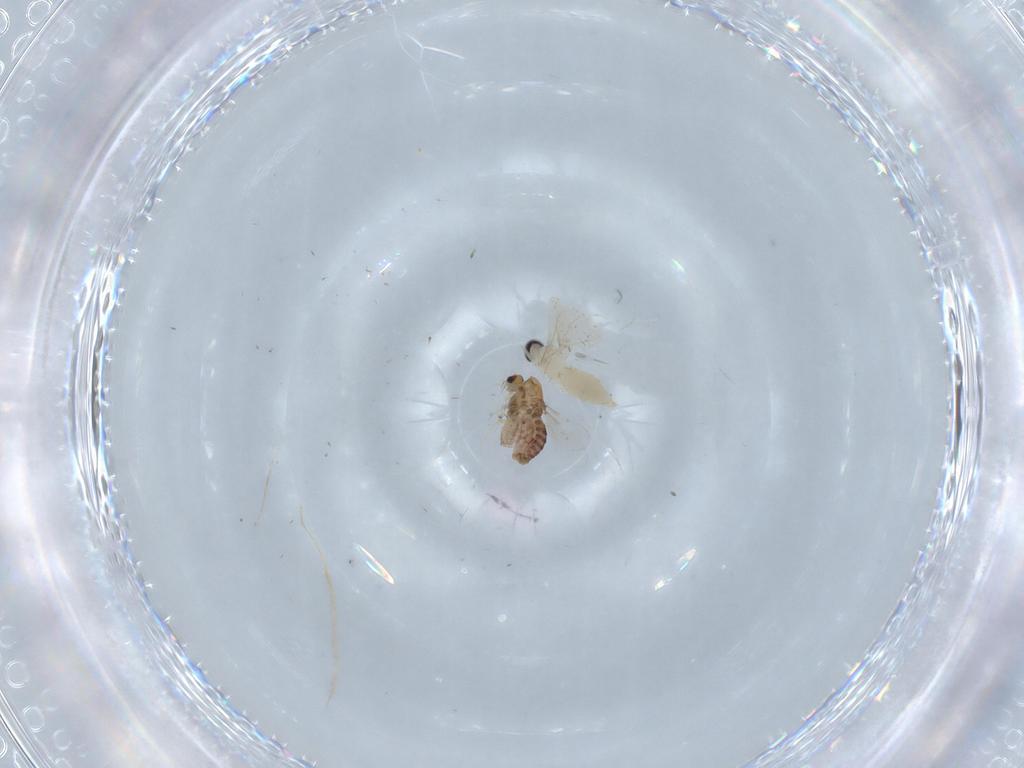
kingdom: Animalia
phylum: Arthropoda
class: Insecta
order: Diptera
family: Chironomidae
